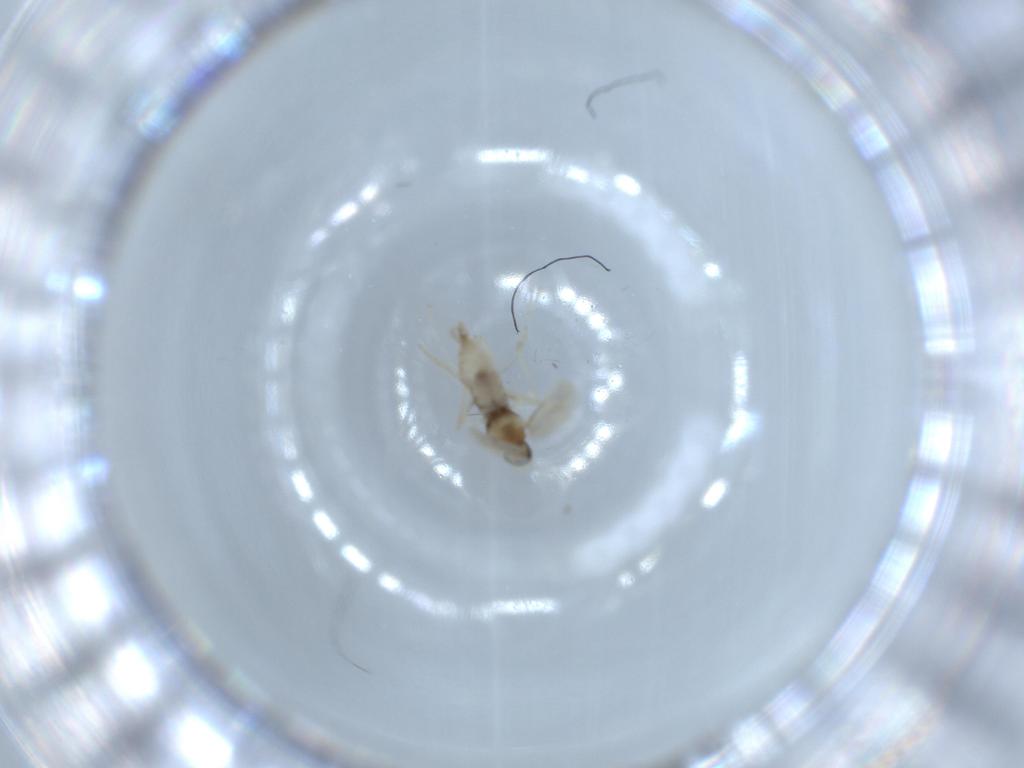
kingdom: Animalia
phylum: Arthropoda
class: Insecta
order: Diptera
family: Cecidomyiidae
